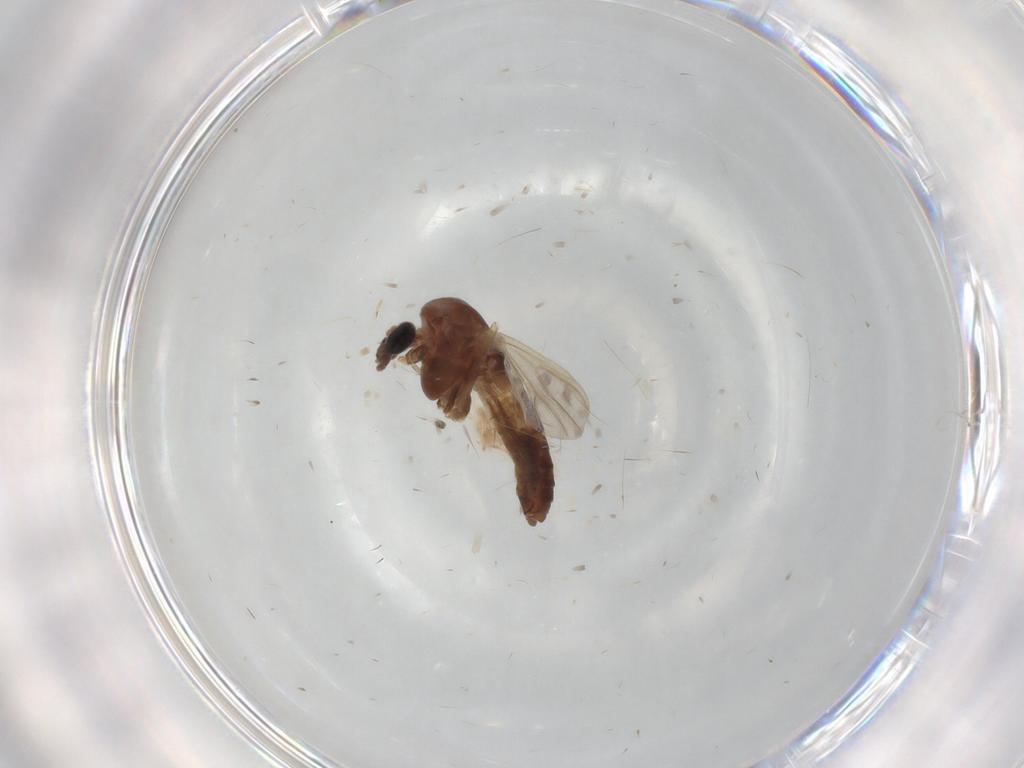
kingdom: Animalia
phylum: Arthropoda
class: Insecta
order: Diptera
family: Chironomidae
